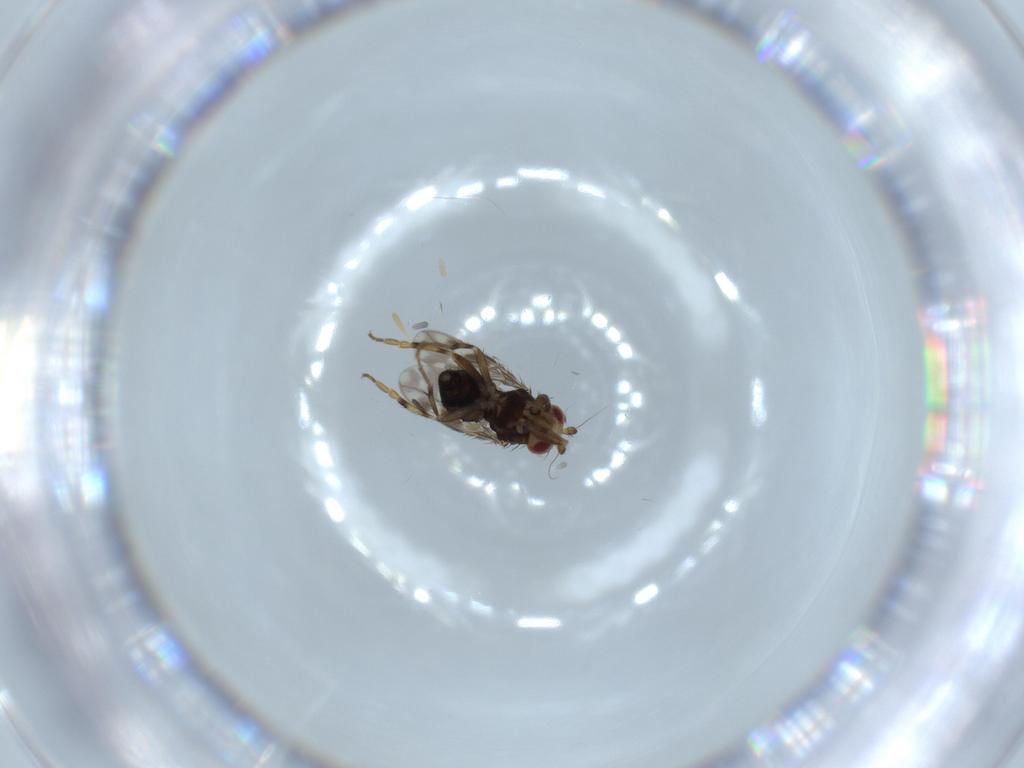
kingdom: Animalia
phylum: Arthropoda
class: Insecta
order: Diptera
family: Sphaeroceridae
